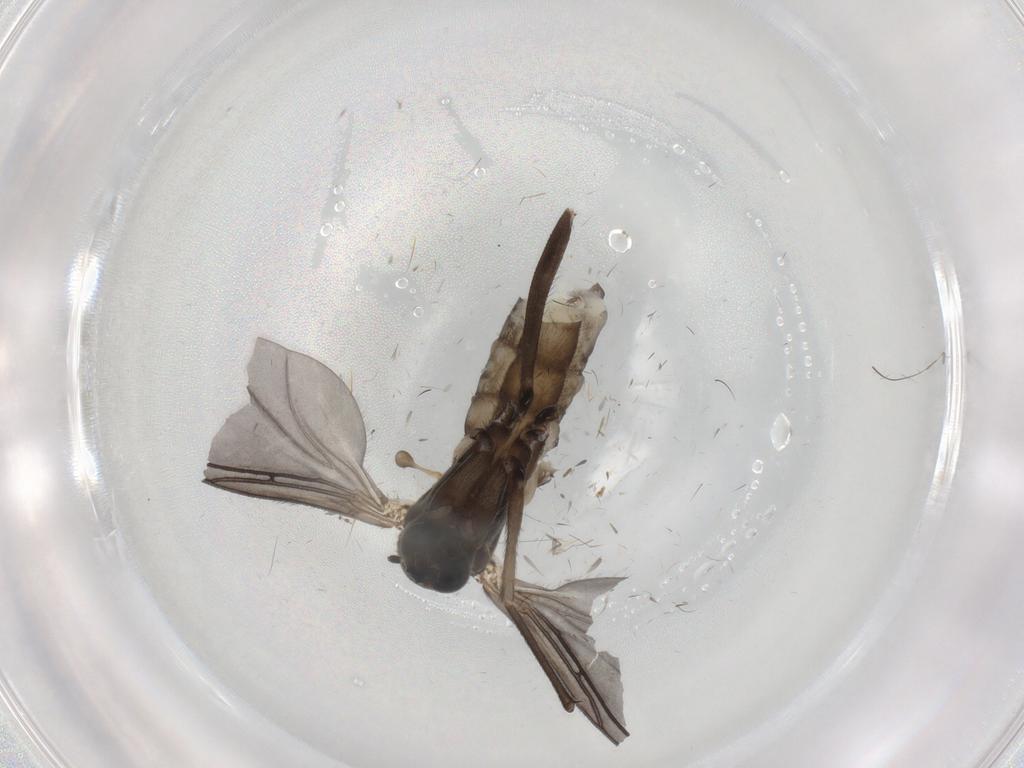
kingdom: Animalia
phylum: Arthropoda
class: Insecta
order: Diptera
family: Sciaridae
